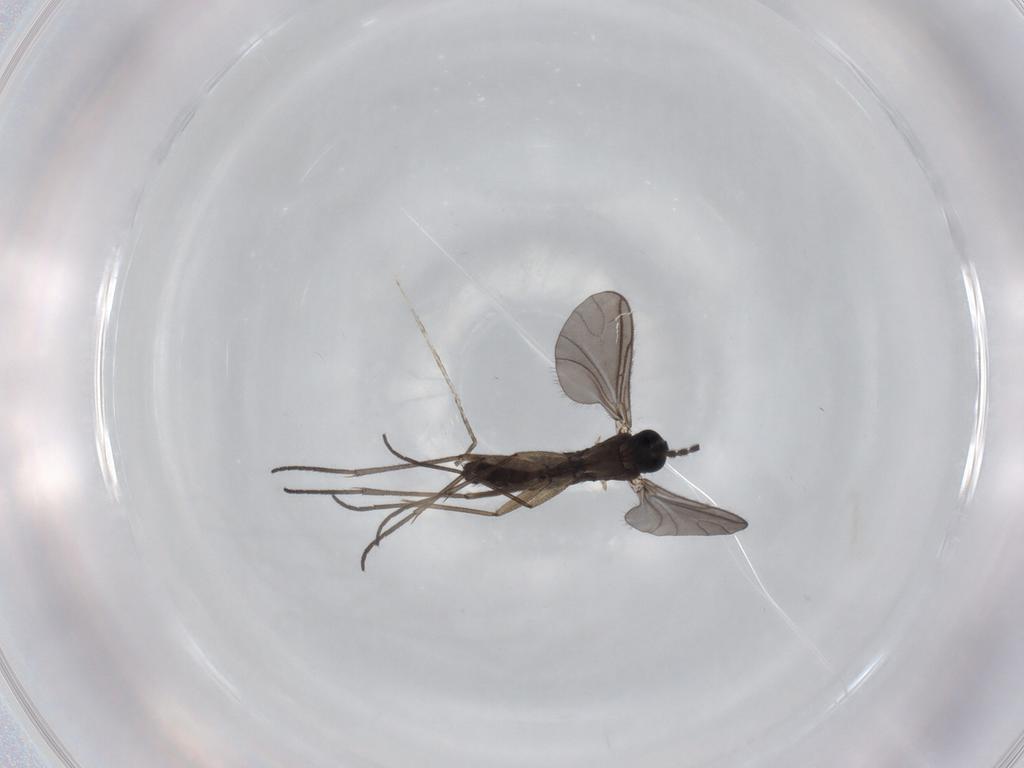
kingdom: Animalia
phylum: Arthropoda
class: Insecta
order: Diptera
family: Sciaridae
